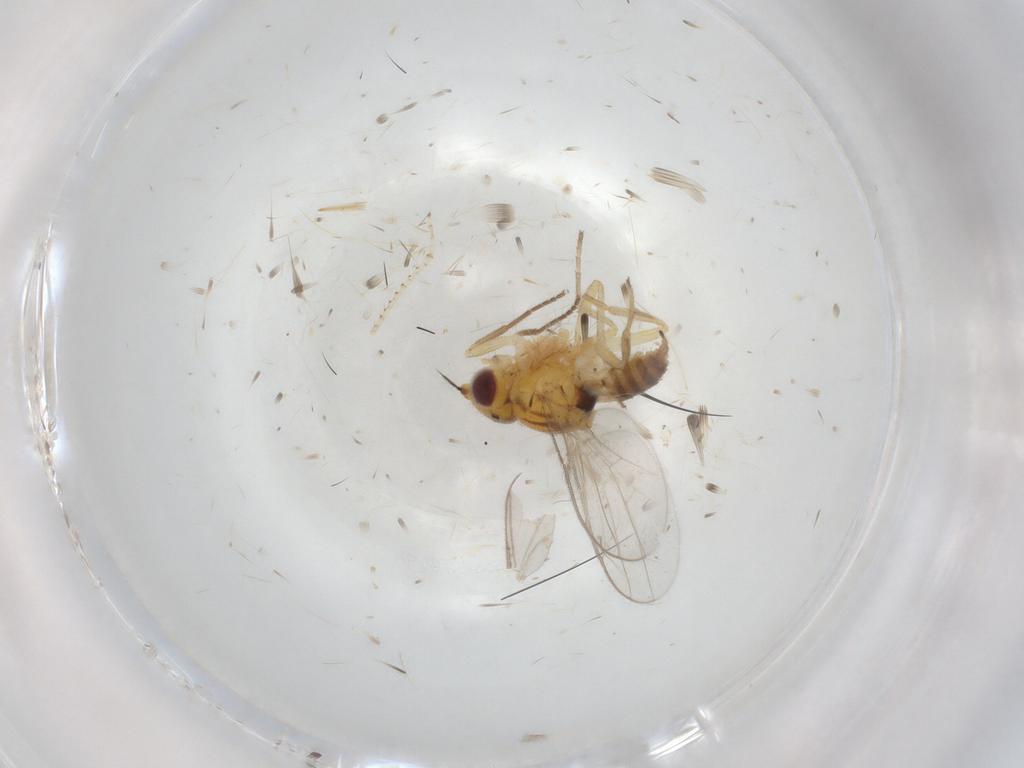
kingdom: Animalia
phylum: Arthropoda
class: Insecta
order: Diptera
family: Chloropidae
